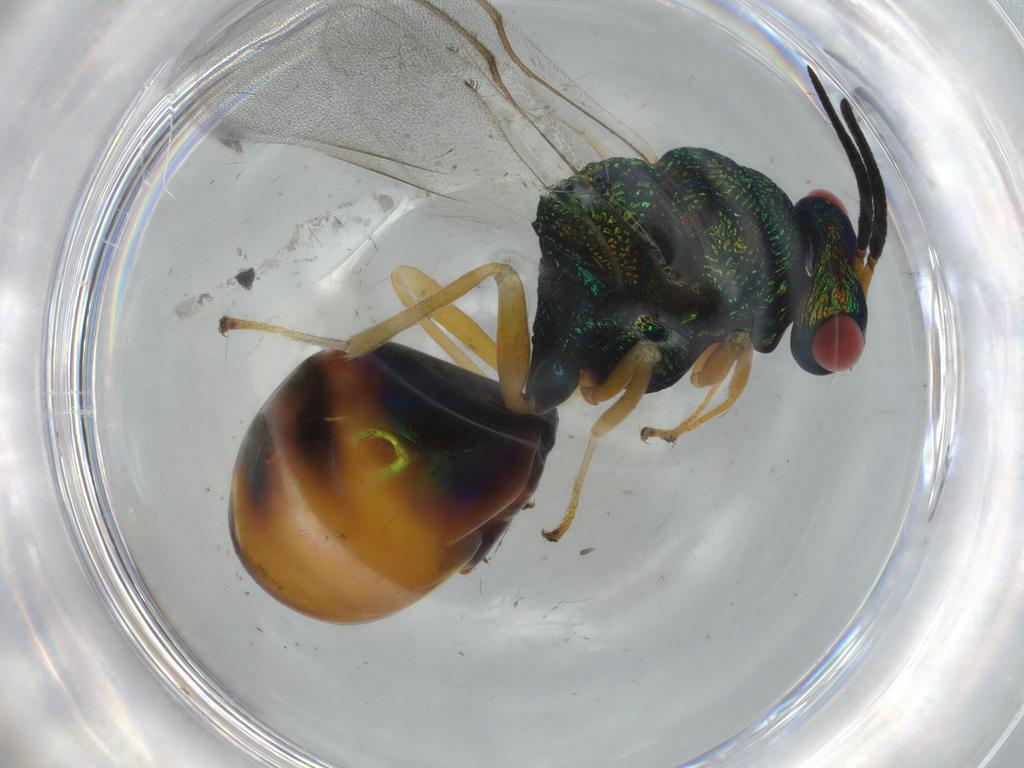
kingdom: Animalia
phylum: Arthropoda
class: Insecta
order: Hymenoptera
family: Eucharitidae
